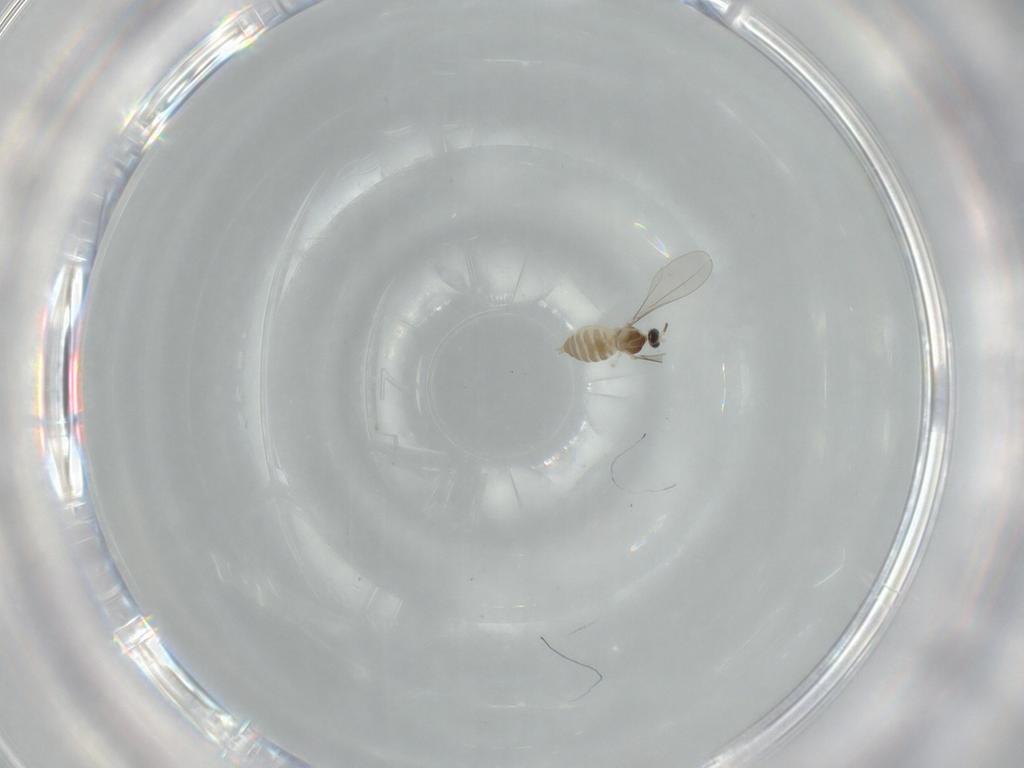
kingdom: Animalia
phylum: Arthropoda
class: Insecta
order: Diptera
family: Cecidomyiidae
